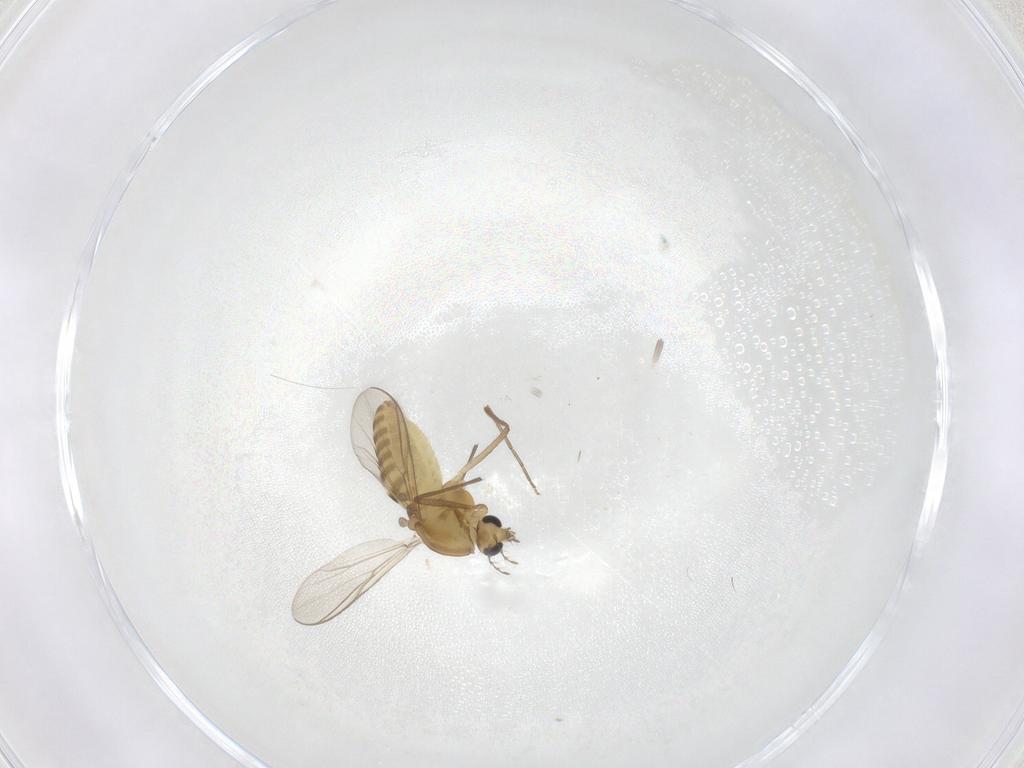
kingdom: Animalia
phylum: Arthropoda
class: Insecta
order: Diptera
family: Chironomidae
